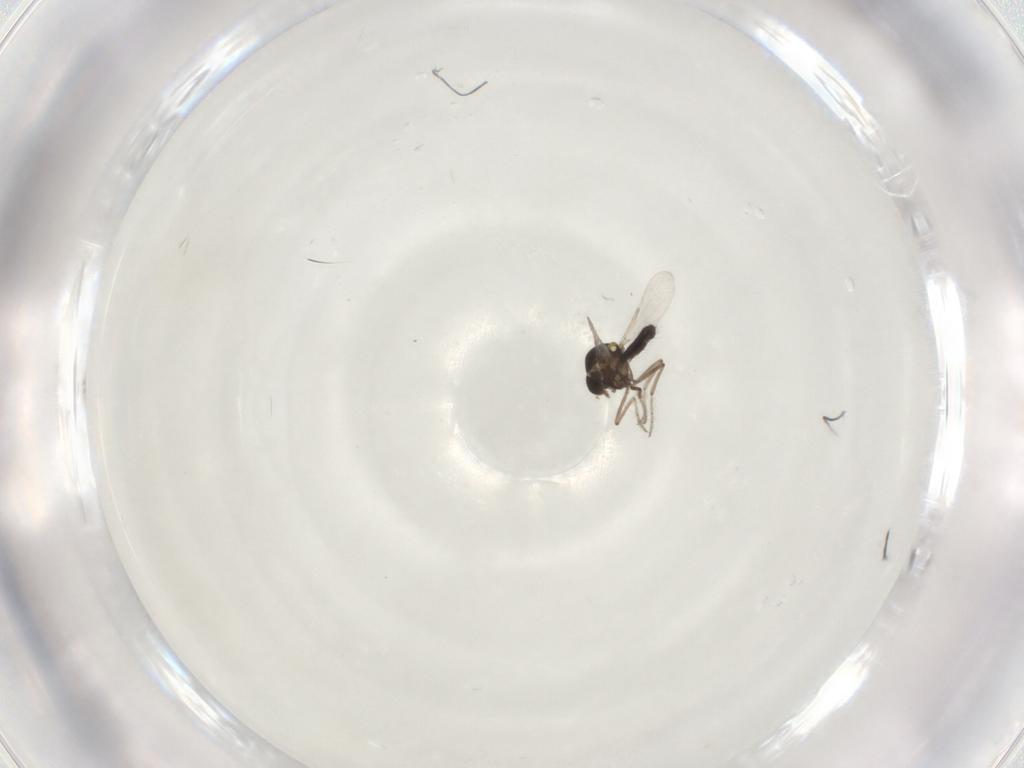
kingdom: Animalia
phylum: Arthropoda
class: Insecta
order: Diptera
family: Ceratopogonidae
